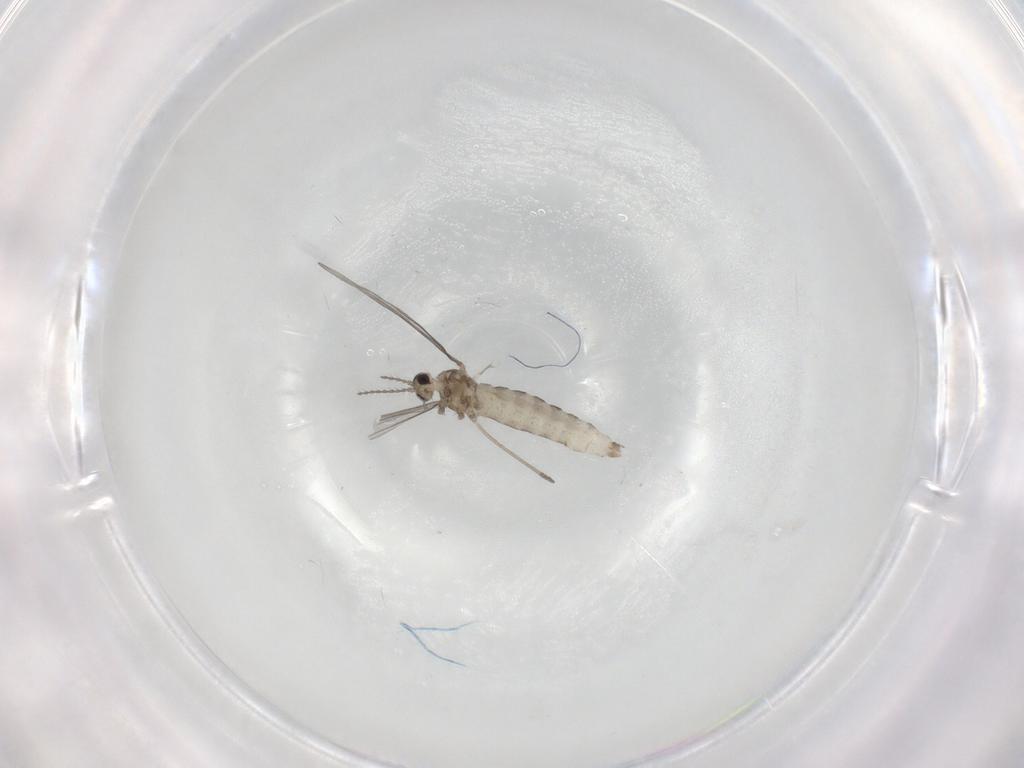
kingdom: Animalia
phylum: Arthropoda
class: Insecta
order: Diptera
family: Cecidomyiidae
